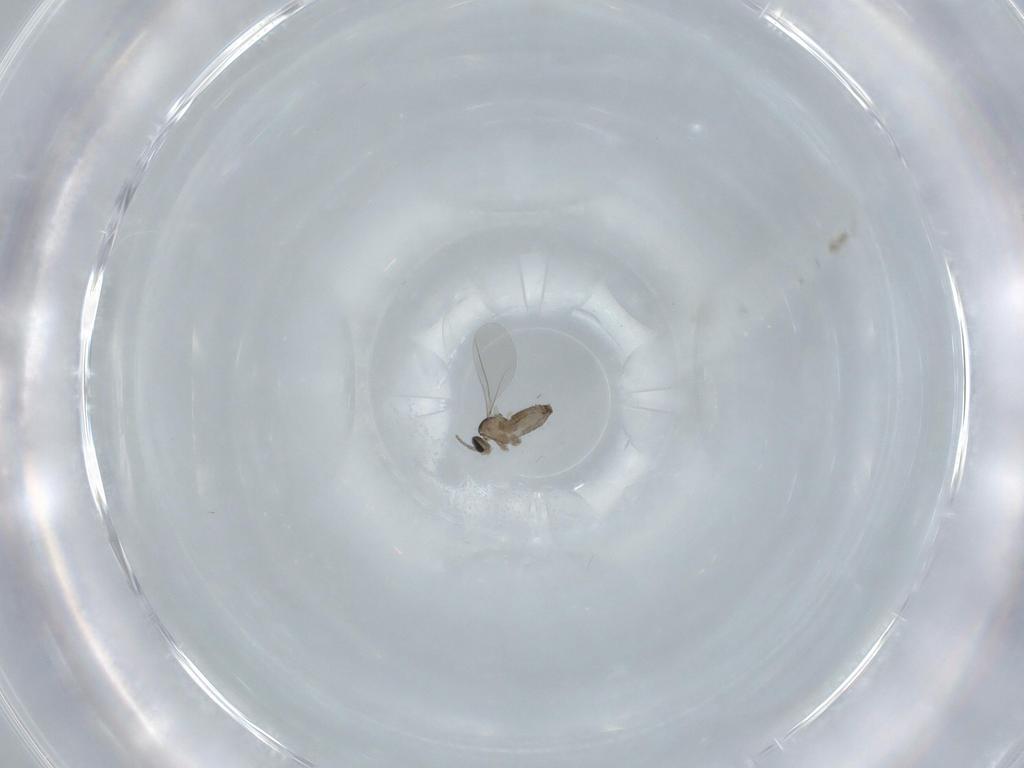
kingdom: Animalia
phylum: Arthropoda
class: Insecta
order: Diptera
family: Cecidomyiidae
